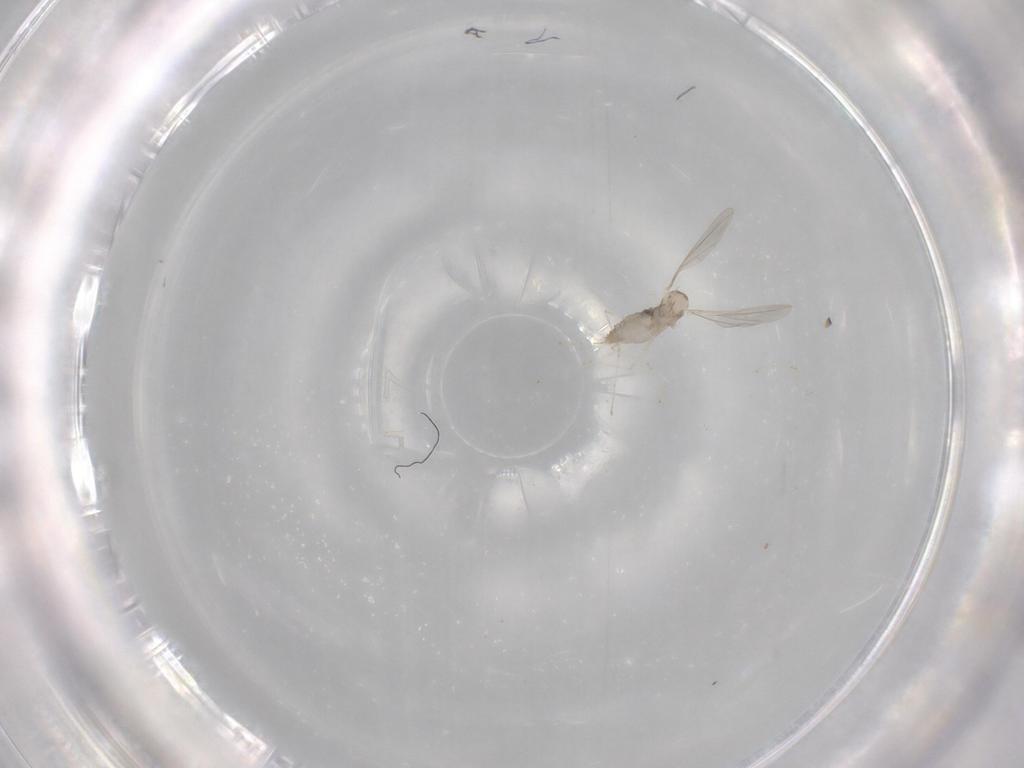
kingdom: Animalia
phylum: Arthropoda
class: Insecta
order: Diptera
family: Cecidomyiidae
